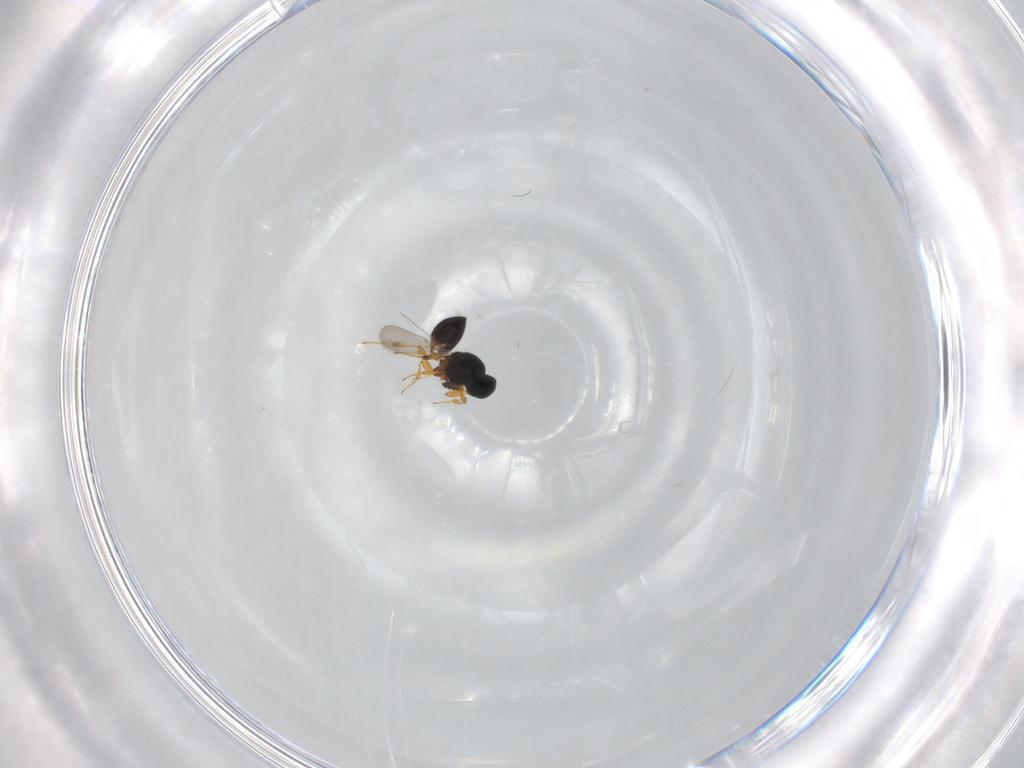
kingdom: Animalia
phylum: Arthropoda
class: Insecta
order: Hymenoptera
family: Platygastridae
